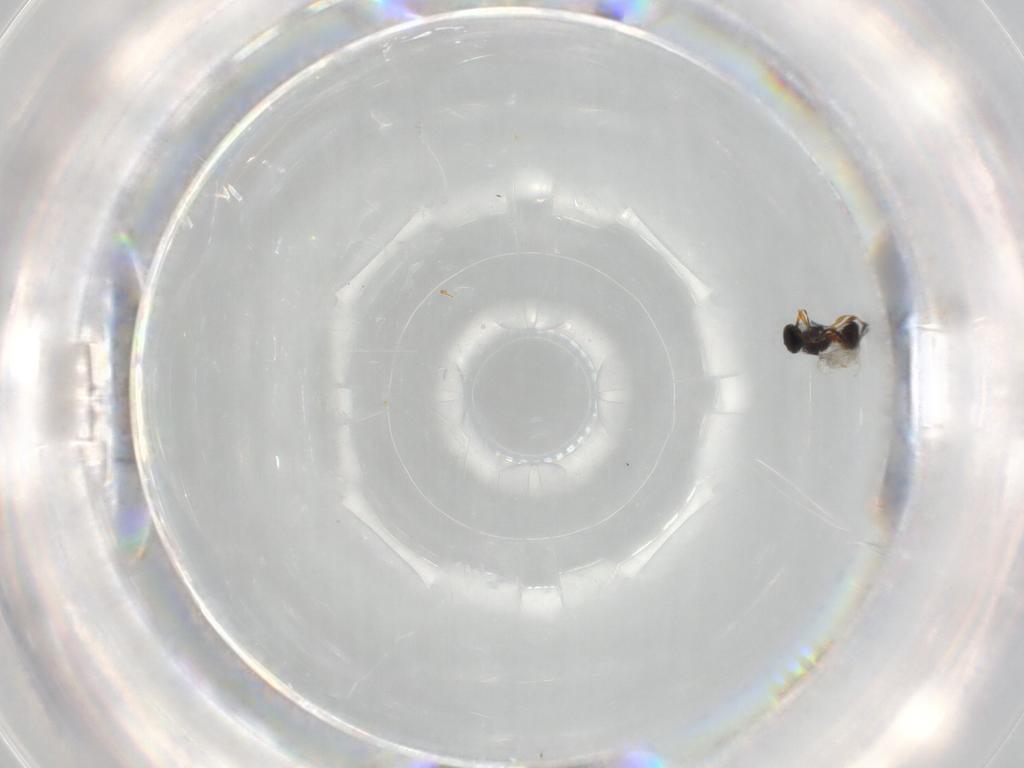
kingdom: Animalia
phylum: Arthropoda
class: Insecta
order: Hymenoptera
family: Platygastridae
